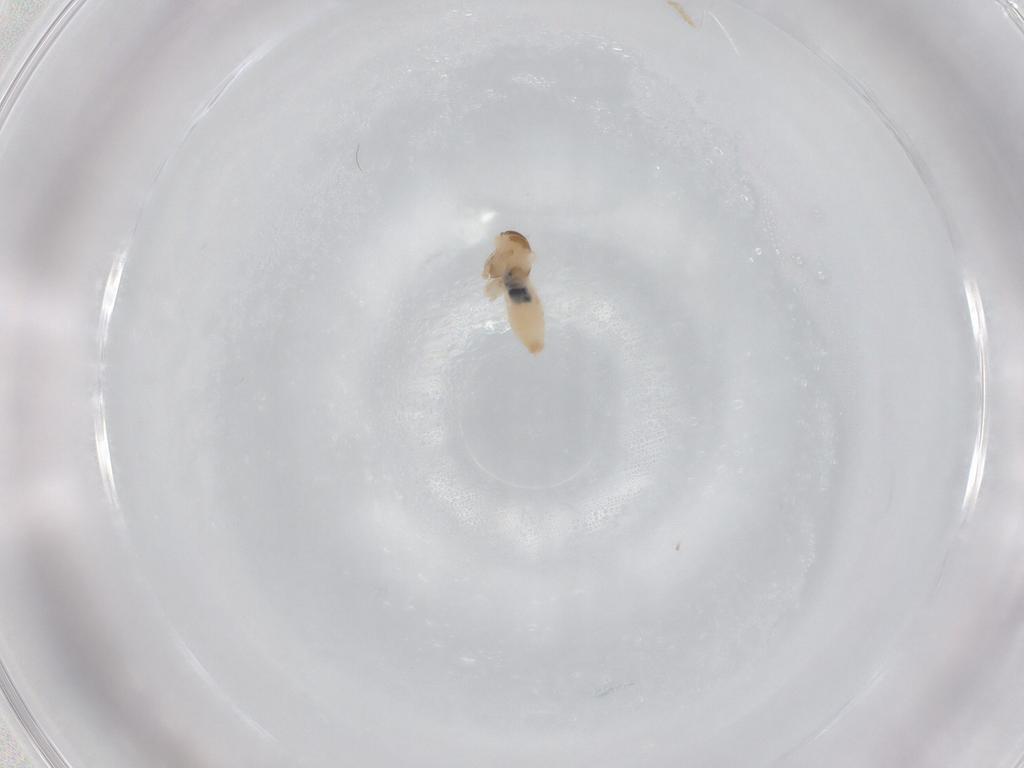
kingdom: Animalia
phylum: Arthropoda
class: Insecta
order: Diptera
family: Cecidomyiidae
